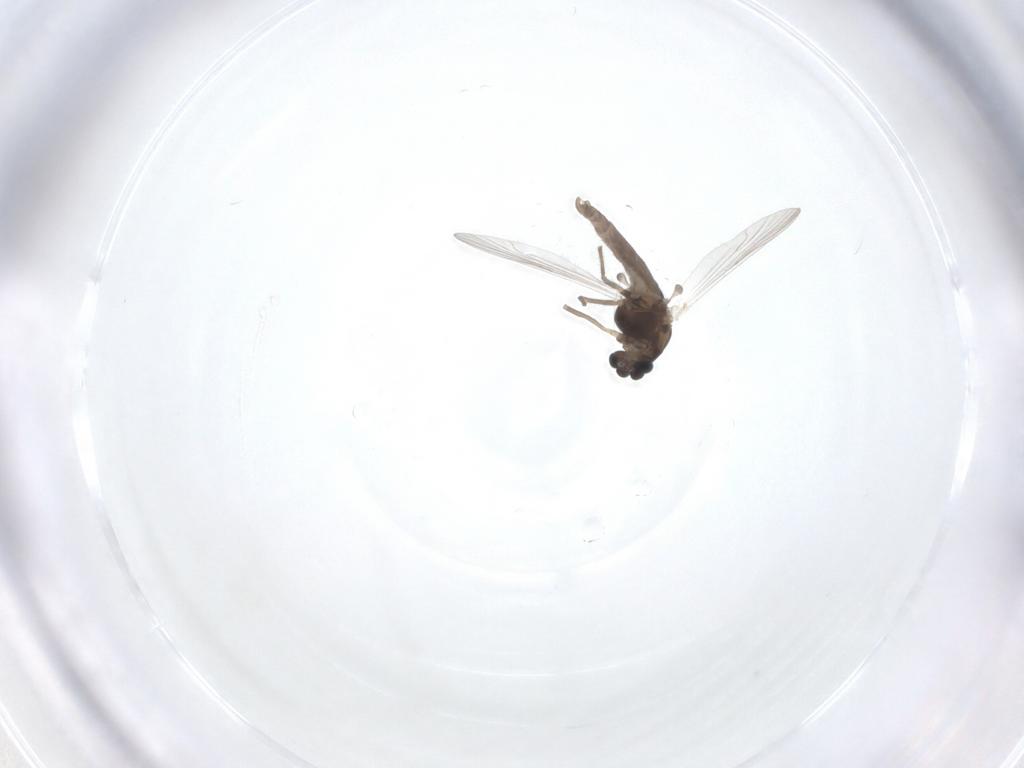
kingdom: Animalia
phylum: Arthropoda
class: Insecta
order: Diptera
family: Chironomidae
